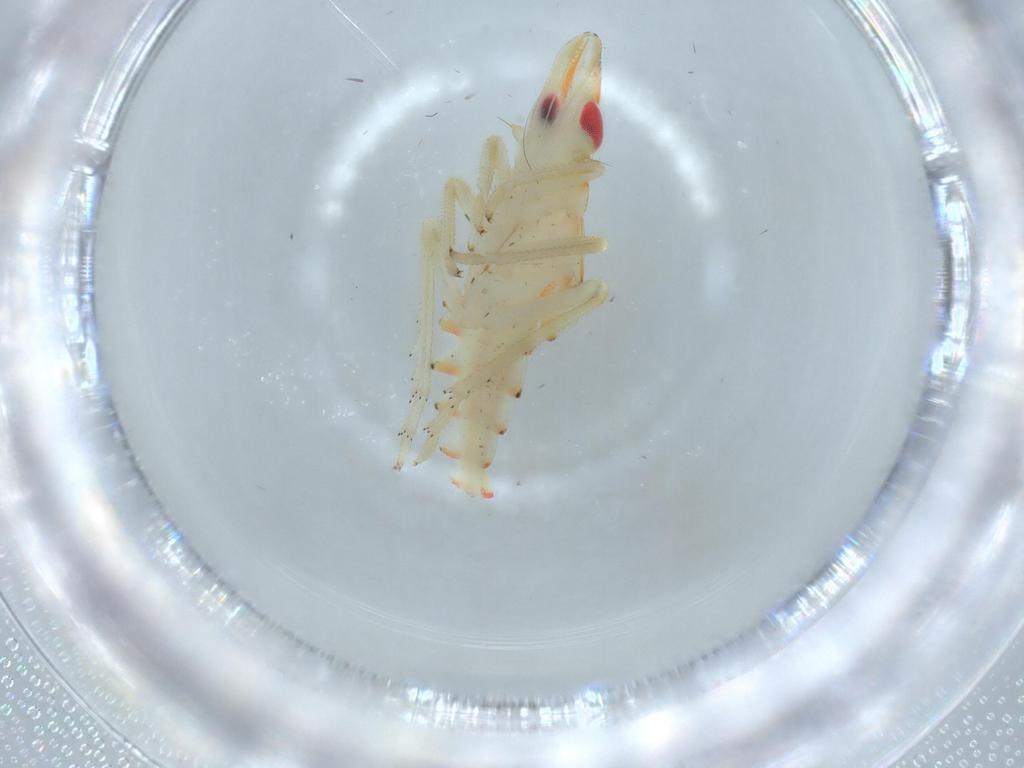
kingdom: Animalia
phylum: Arthropoda
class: Insecta
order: Hemiptera
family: Tropiduchidae
